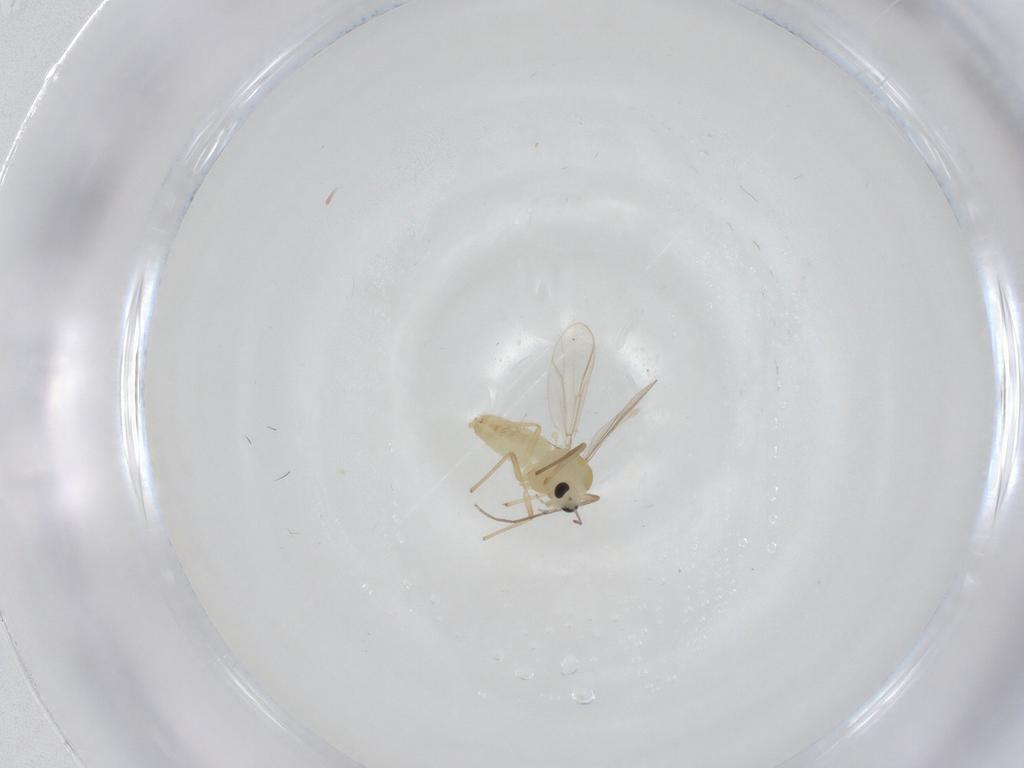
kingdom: Animalia
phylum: Arthropoda
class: Insecta
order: Diptera
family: Chironomidae
